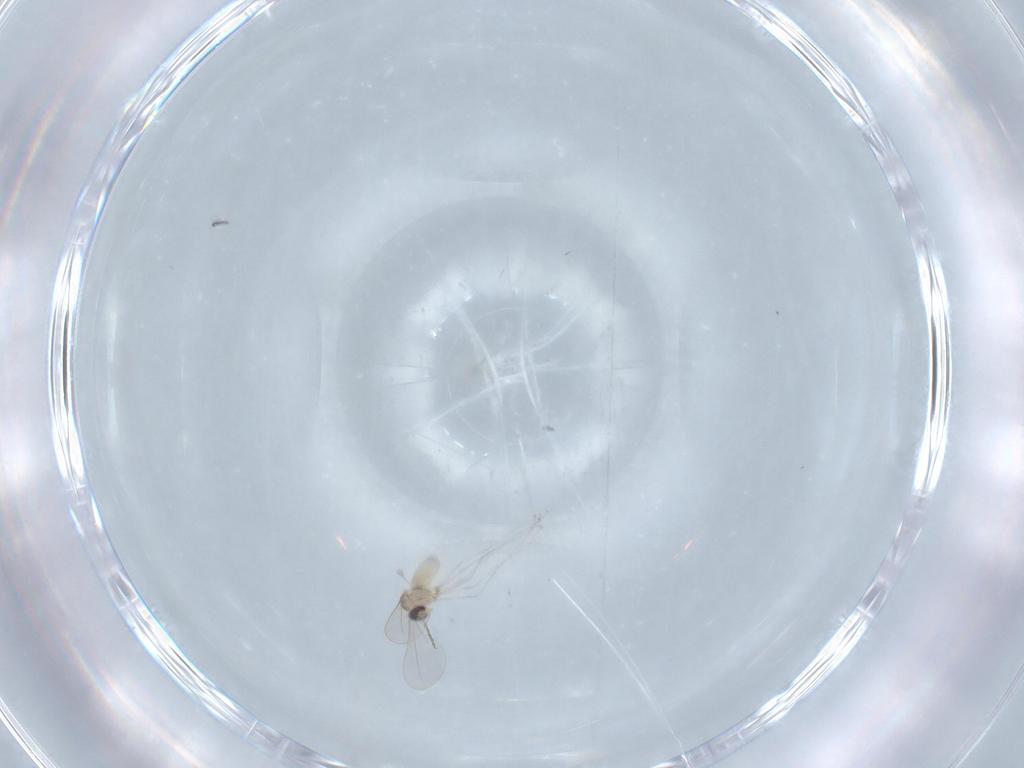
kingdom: Animalia
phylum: Arthropoda
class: Insecta
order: Diptera
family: Cecidomyiidae
